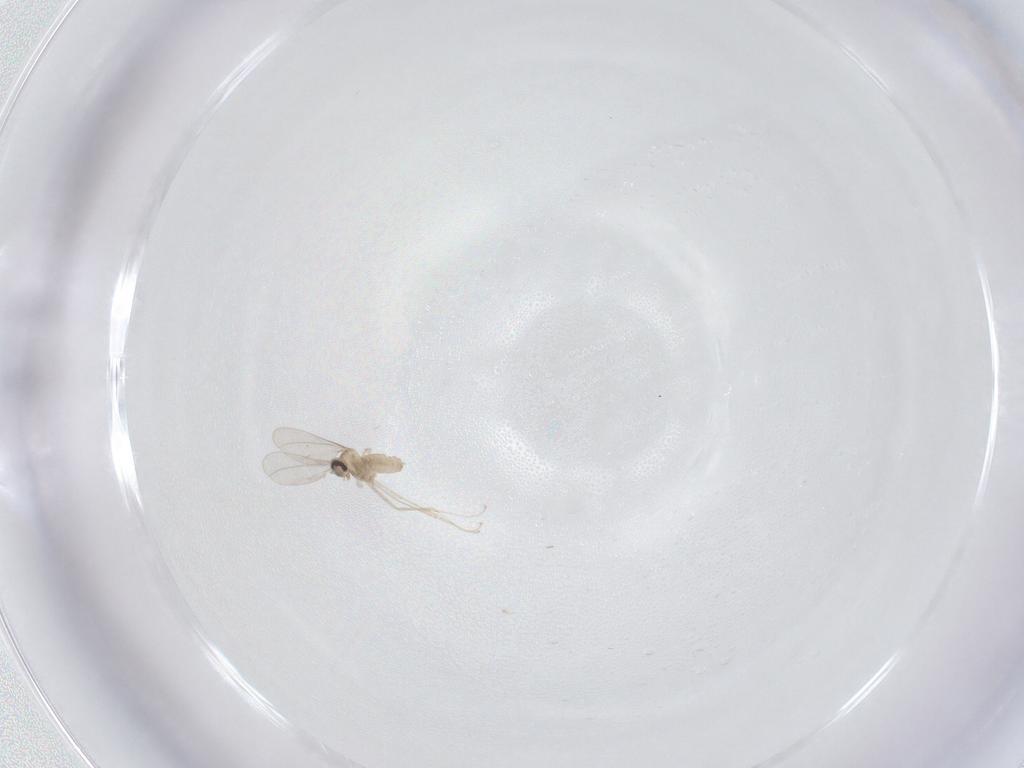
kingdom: Animalia
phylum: Arthropoda
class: Insecta
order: Diptera
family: Cecidomyiidae
